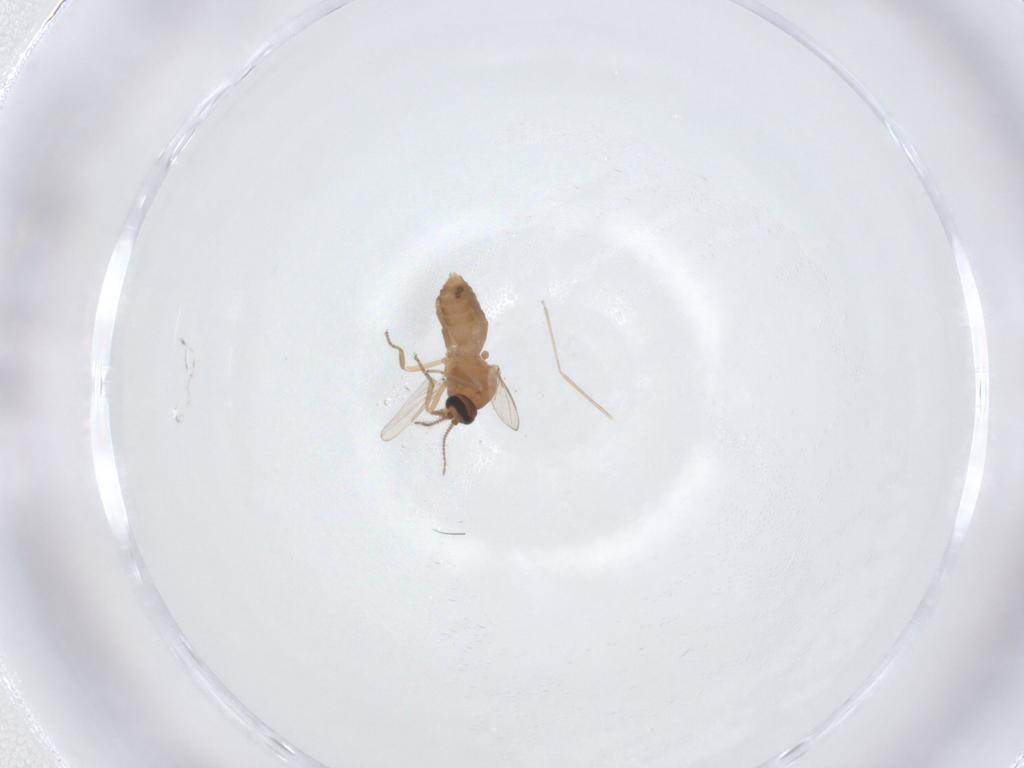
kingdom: Animalia
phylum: Arthropoda
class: Insecta
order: Diptera
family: Ceratopogonidae
